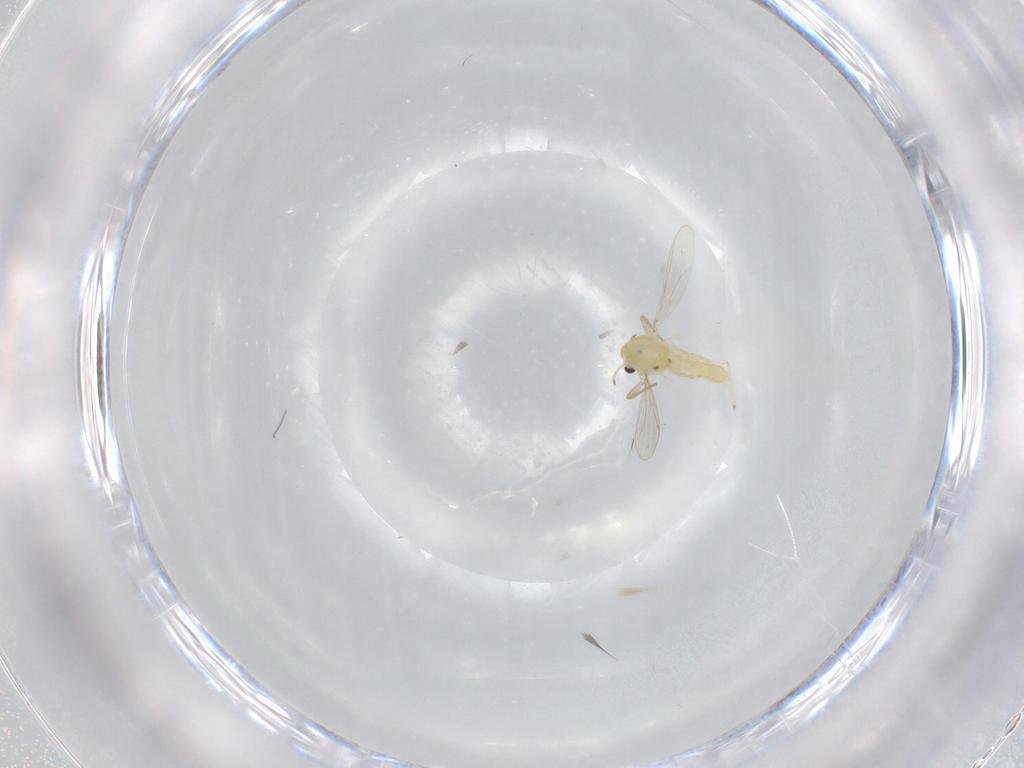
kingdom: Animalia
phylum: Arthropoda
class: Insecta
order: Diptera
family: Chironomidae
